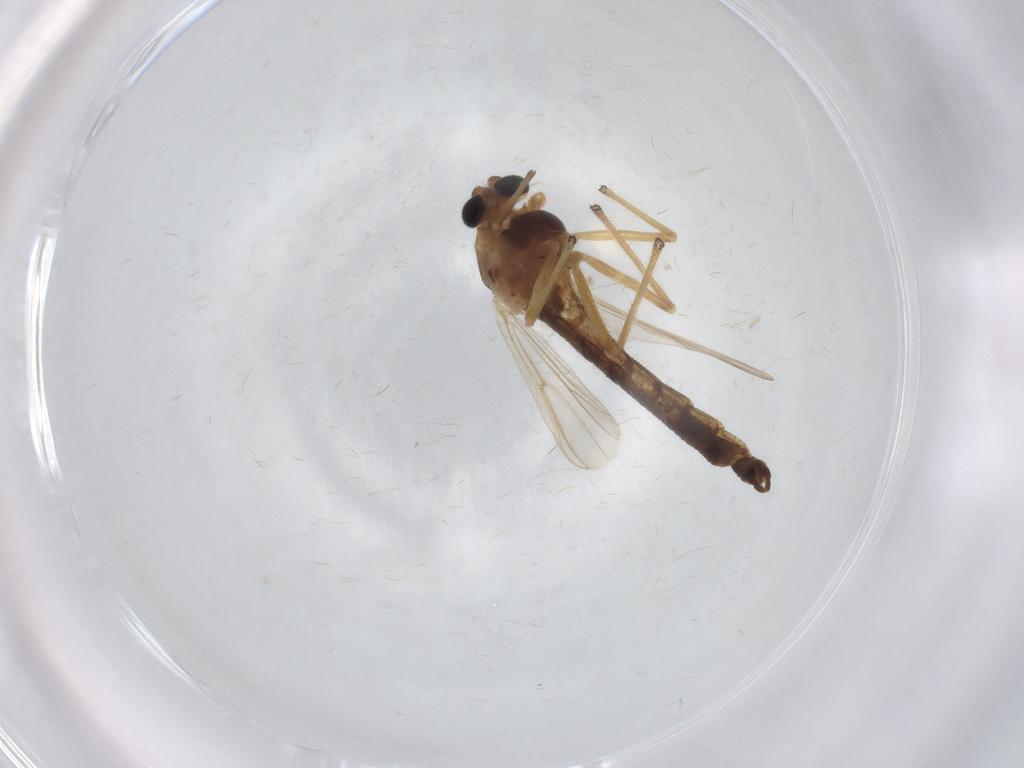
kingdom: Animalia
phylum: Arthropoda
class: Insecta
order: Diptera
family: Chironomidae
